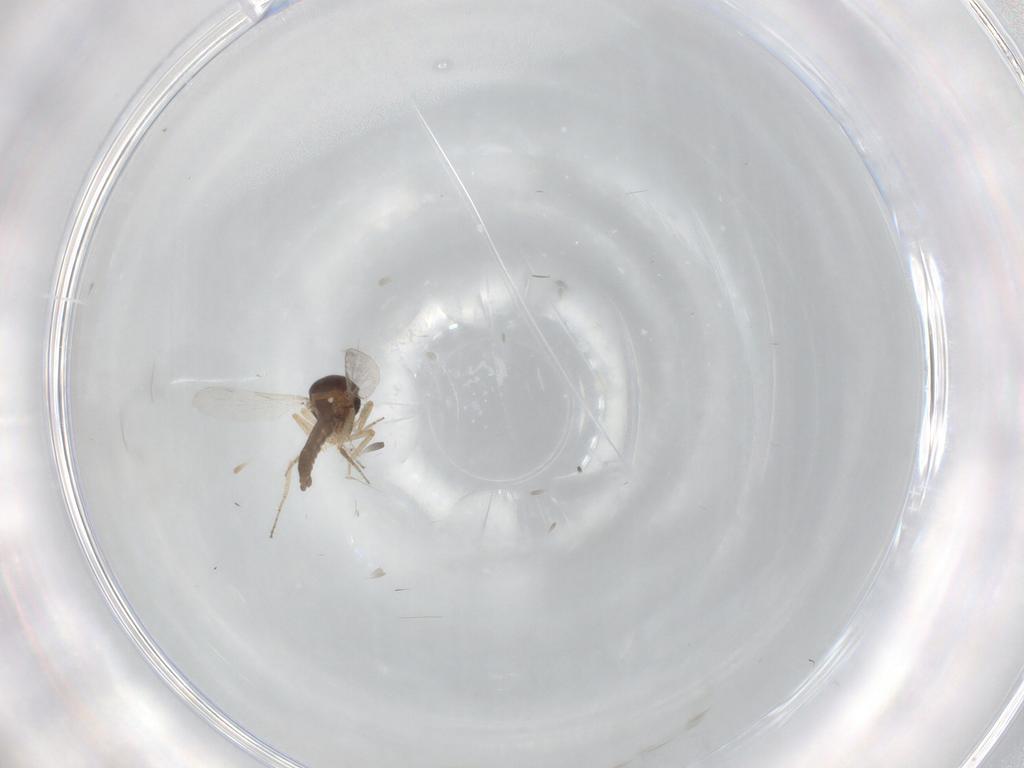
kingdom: Animalia
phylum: Arthropoda
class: Insecta
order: Diptera
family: Ceratopogonidae
